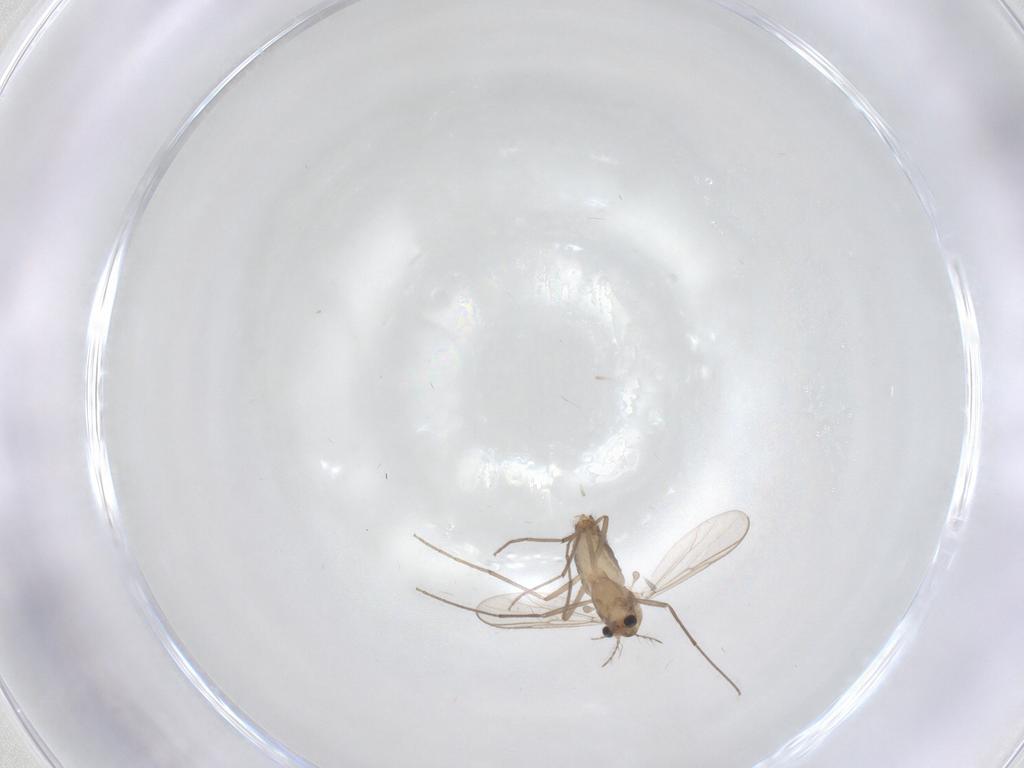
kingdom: Animalia
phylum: Arthropoda
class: Insecta
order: Diptera
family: Chironomidae
